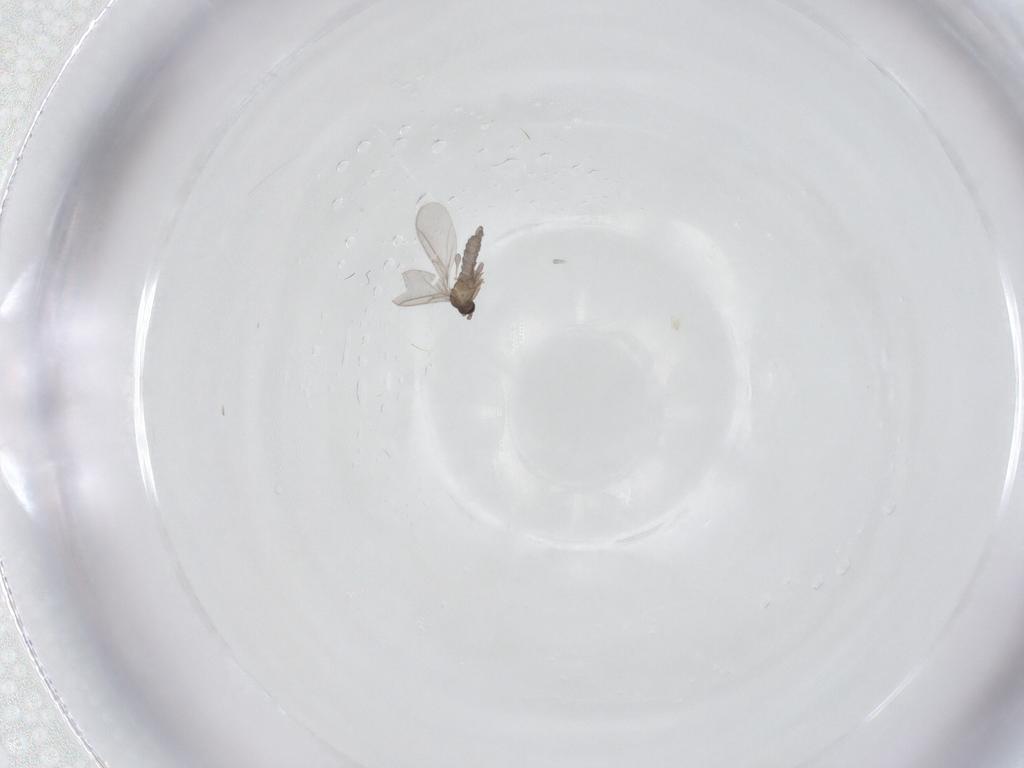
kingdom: Animalia
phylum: Arthropoda
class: Insecta
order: Diptera
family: Sciaridae
